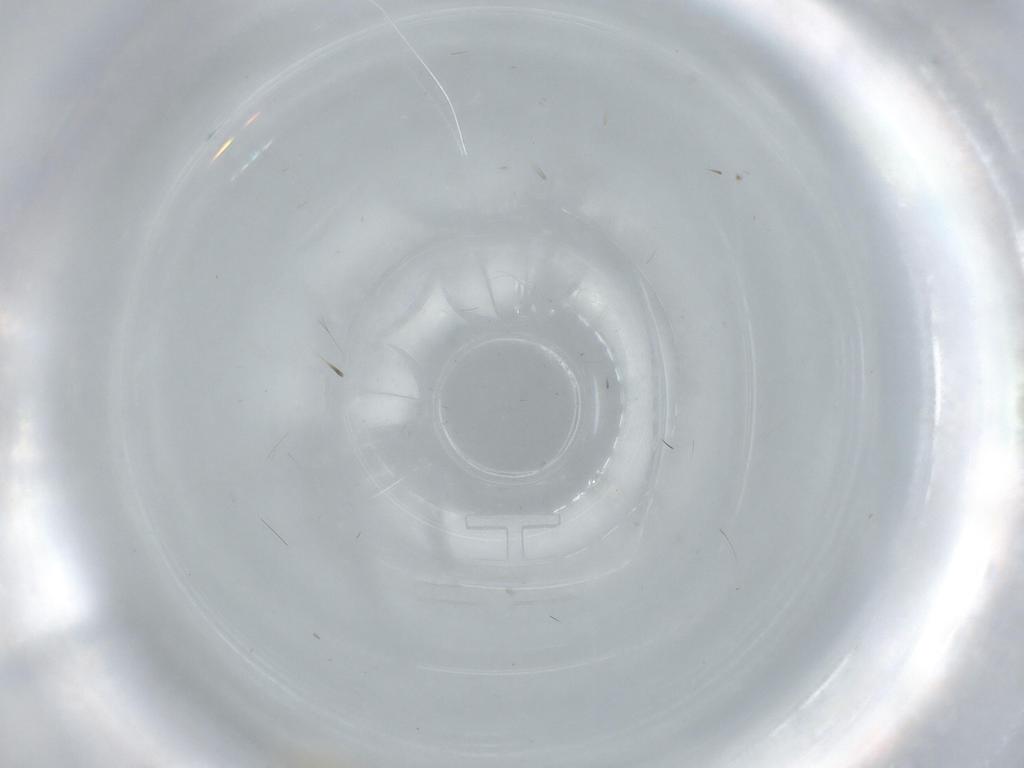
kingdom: Animalia
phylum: Arthropoda
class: Insecta
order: Diptera
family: Cecidomyiidae
